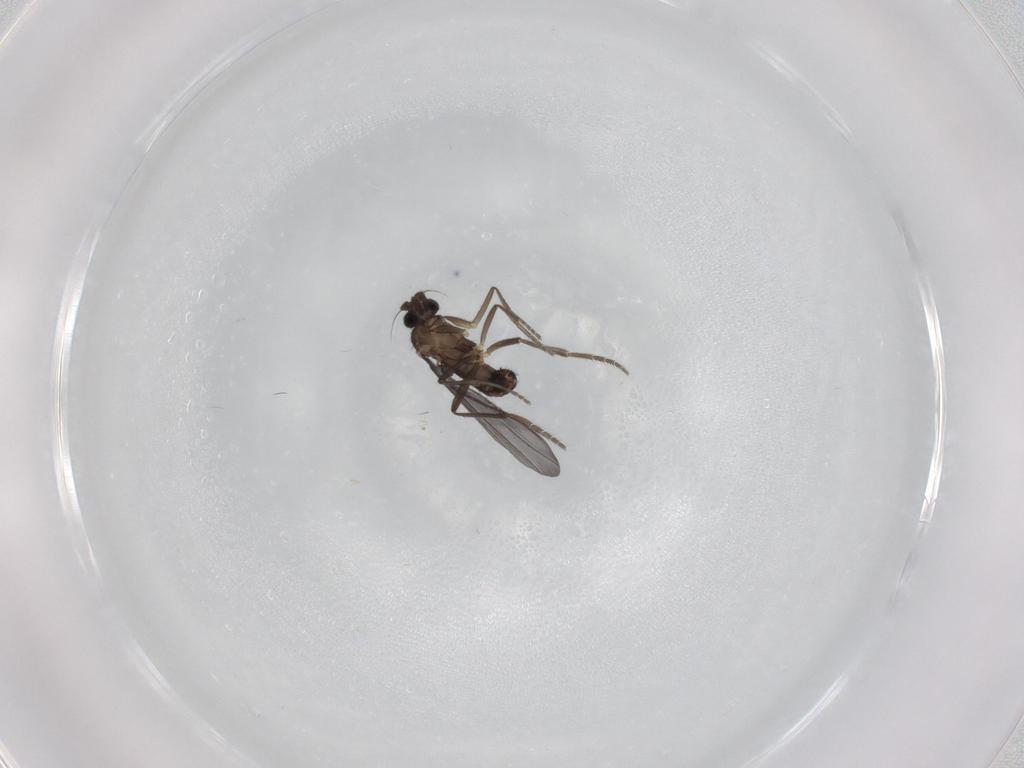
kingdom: Animalia
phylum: Arthropoda
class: Insecta
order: Diptera
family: Phoridae
